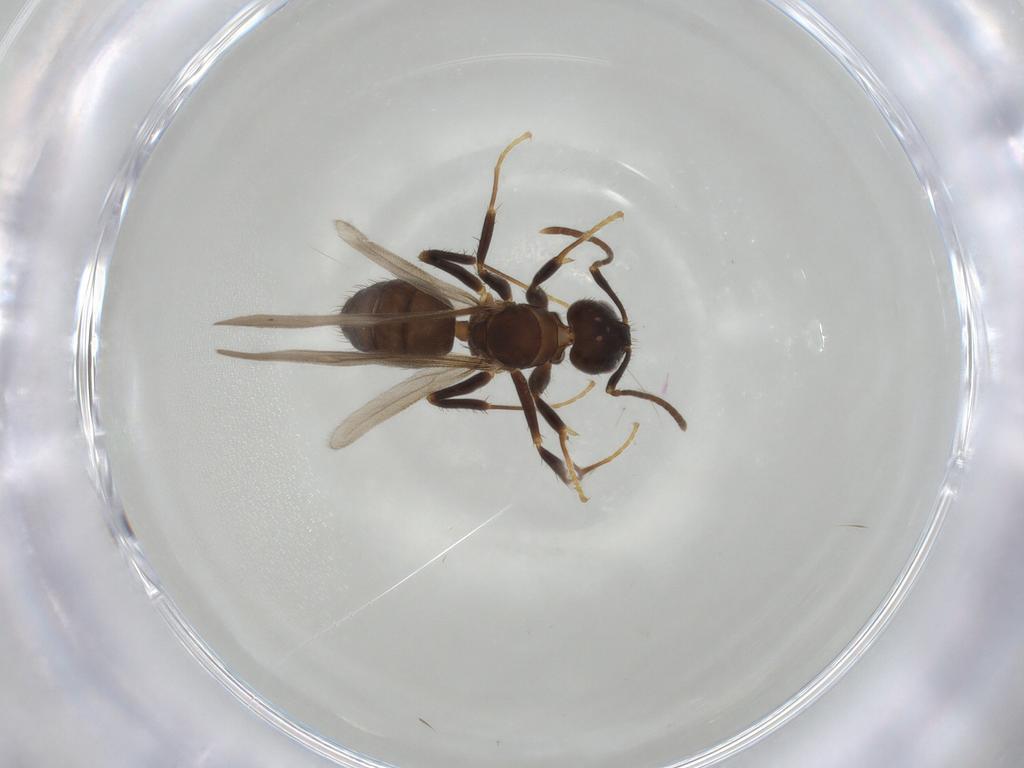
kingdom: Animalia
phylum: Arthropoda
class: Insecta
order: Hymenoptera
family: Formicidae
